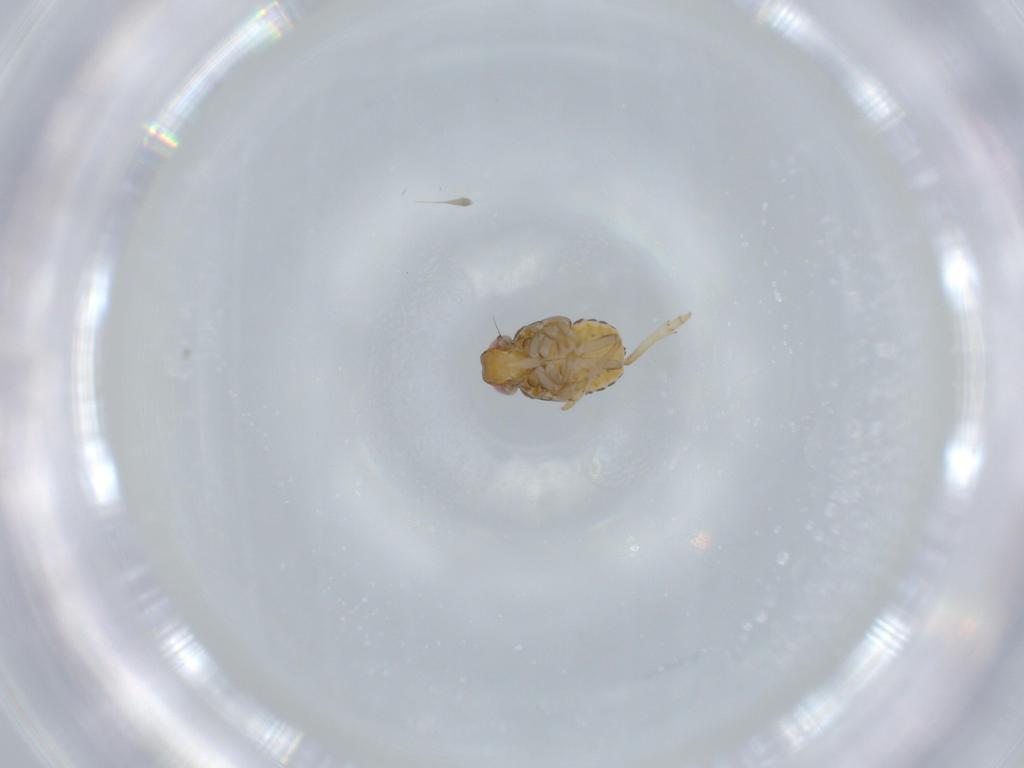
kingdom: Animalia
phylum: Arthropoda
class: Insecta
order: Hemiptera
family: Issidae
